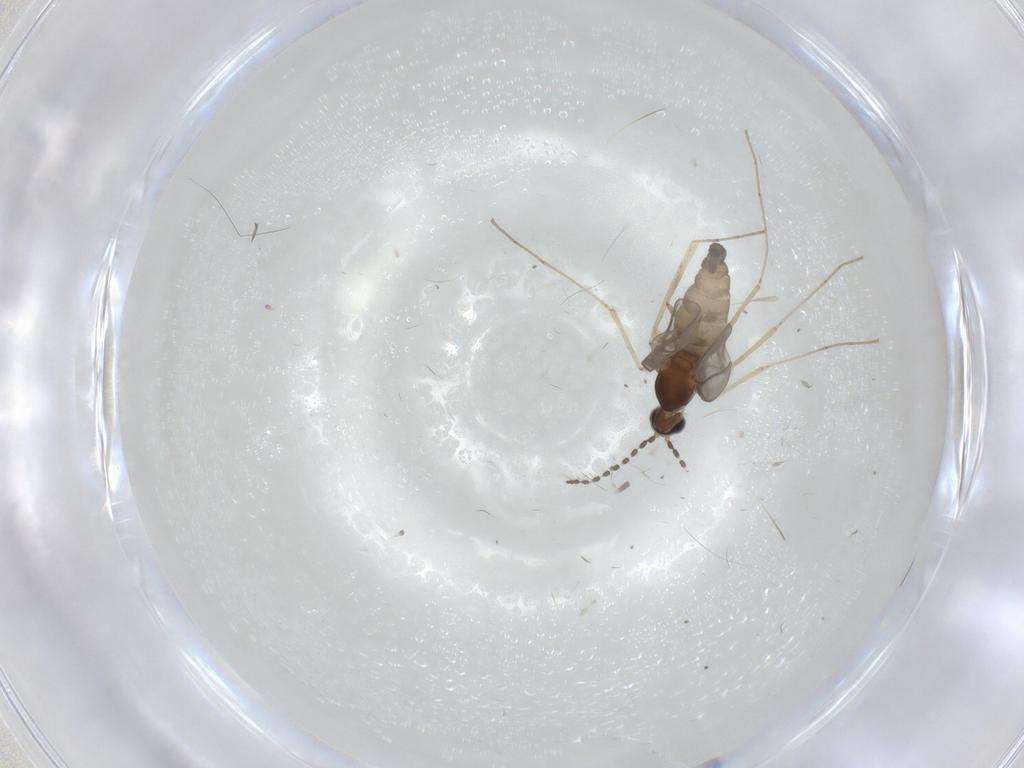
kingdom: Animalia
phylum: Arthropoda
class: Insecta
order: Diptera
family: Cecidomyiidae
